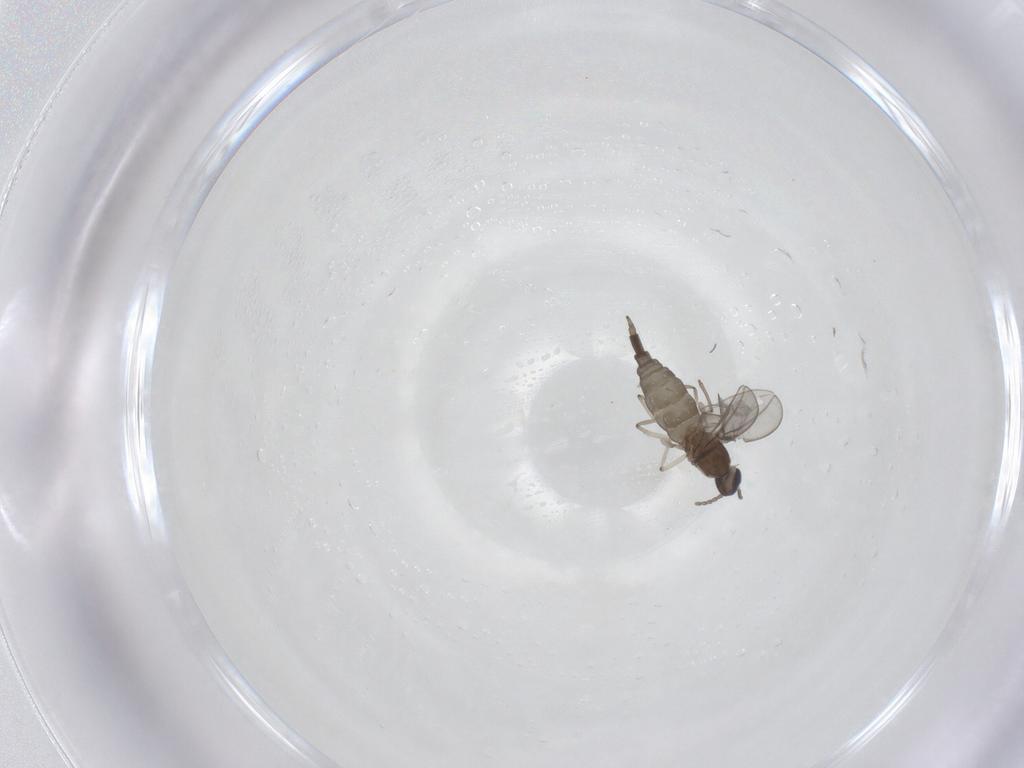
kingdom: Animalia
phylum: Arthropoda
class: Insecta
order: Diptera
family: Cecidomyiidae
